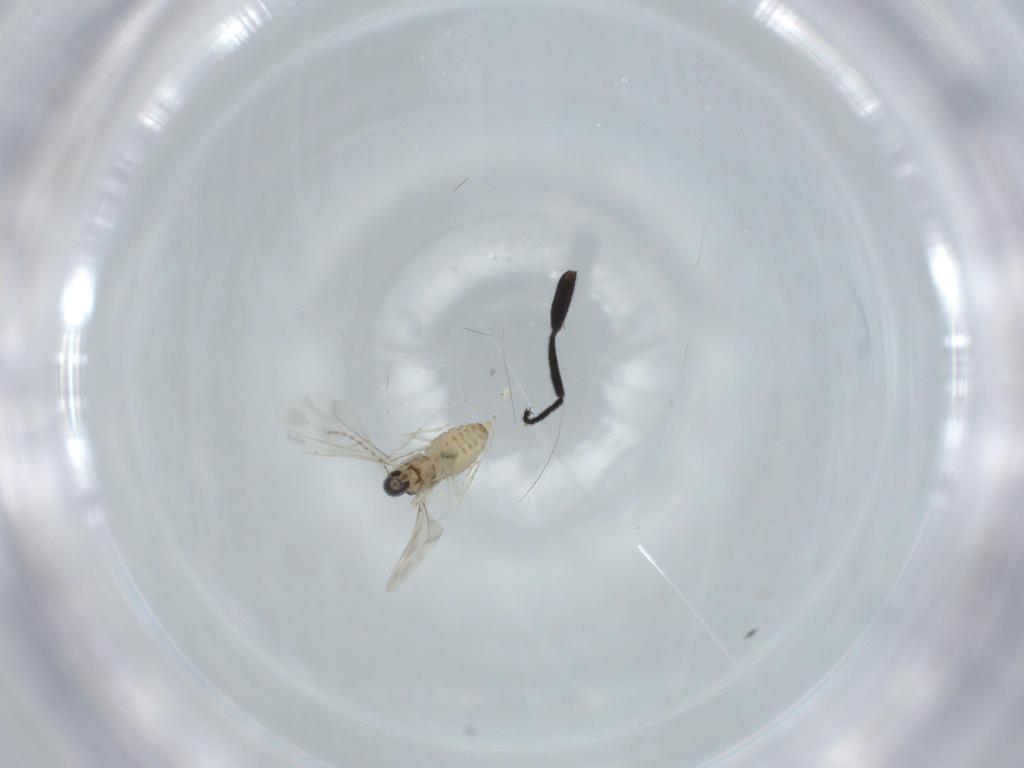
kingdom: Animalia
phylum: Arthropoda
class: Insecta
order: Diptera
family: Cecidomyiidae
